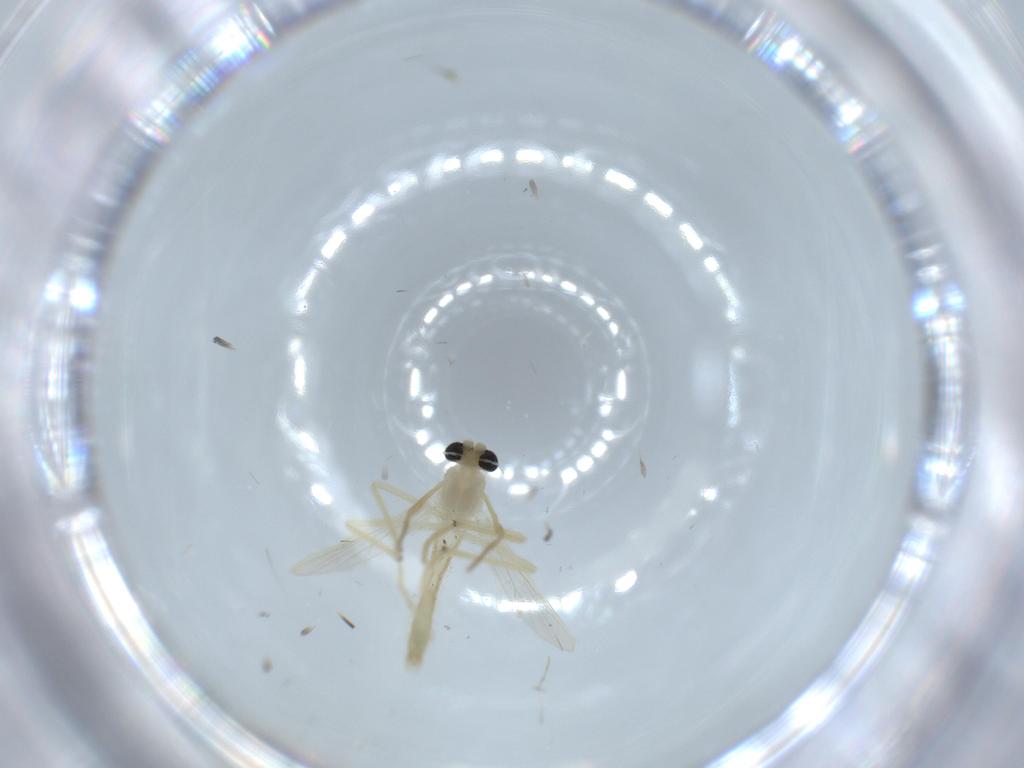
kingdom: Animalia
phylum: Arthropoda
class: Insecta
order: Diptera
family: Chironomidae
